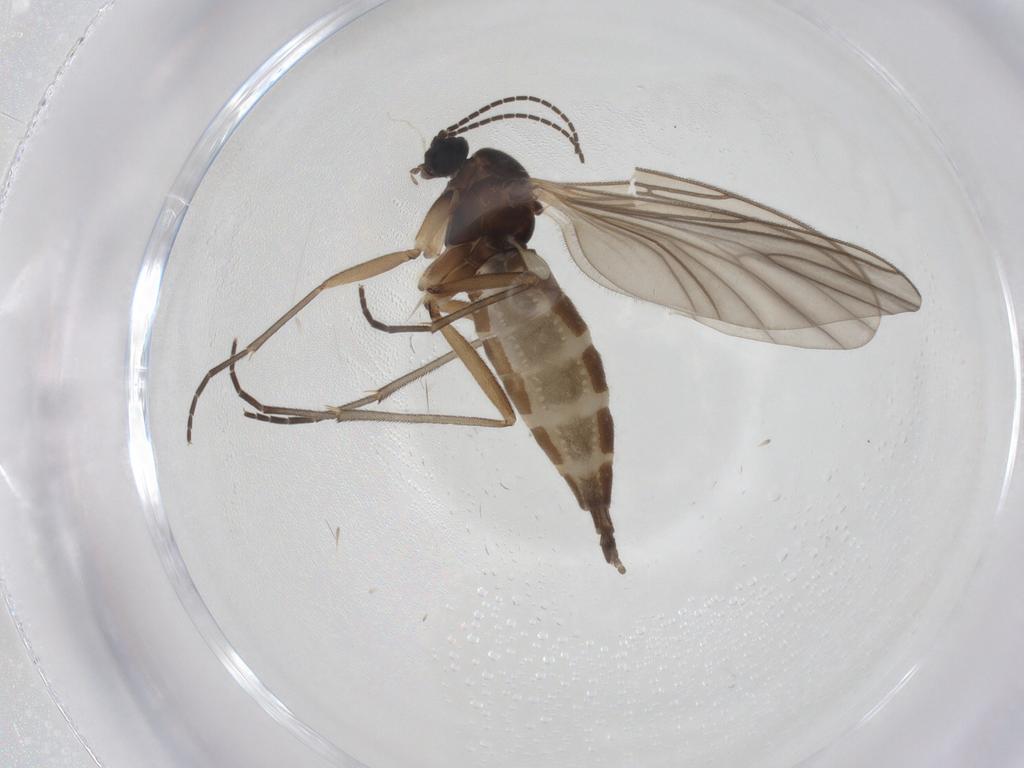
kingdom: Animalia
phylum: Arthropoda
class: Insecta
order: Diptera
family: Sciaridae
